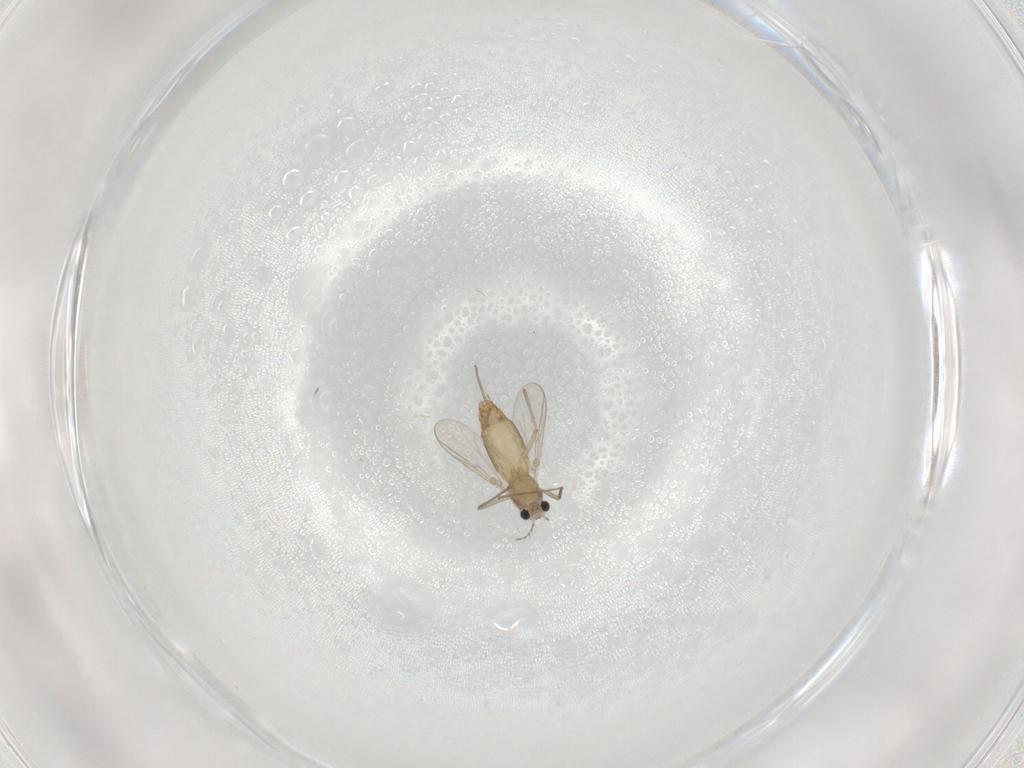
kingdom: Animalia
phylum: Arthropoda
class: Insecta
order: Diptera
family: Chironomidae
